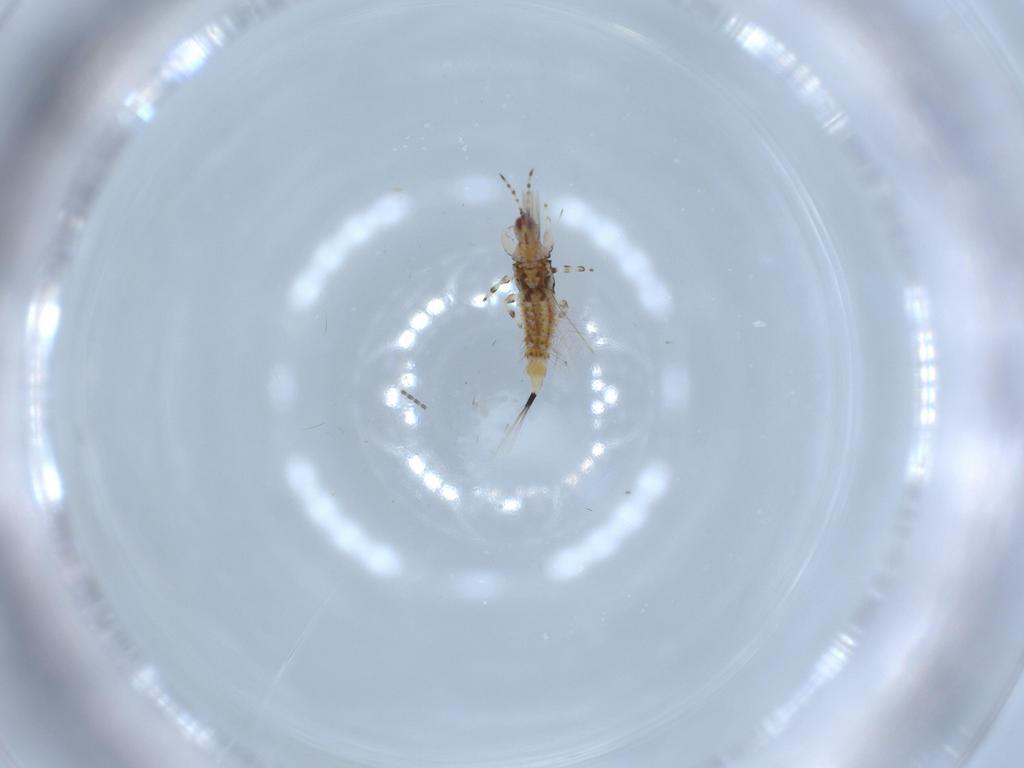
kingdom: Animalia
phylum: Arthropoda
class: Insecta
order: Thysanoptera
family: Phlaeothripidae
